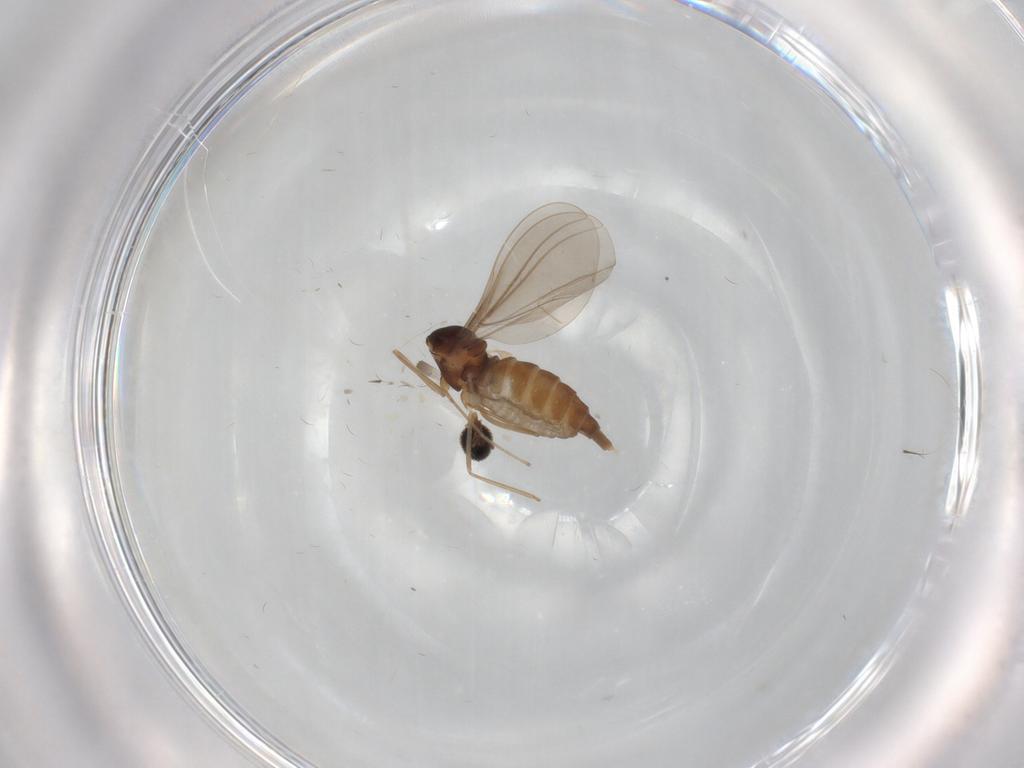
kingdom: Animalia
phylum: Arthropoda
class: Insecta
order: Diptera
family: Cecidomyiidae
